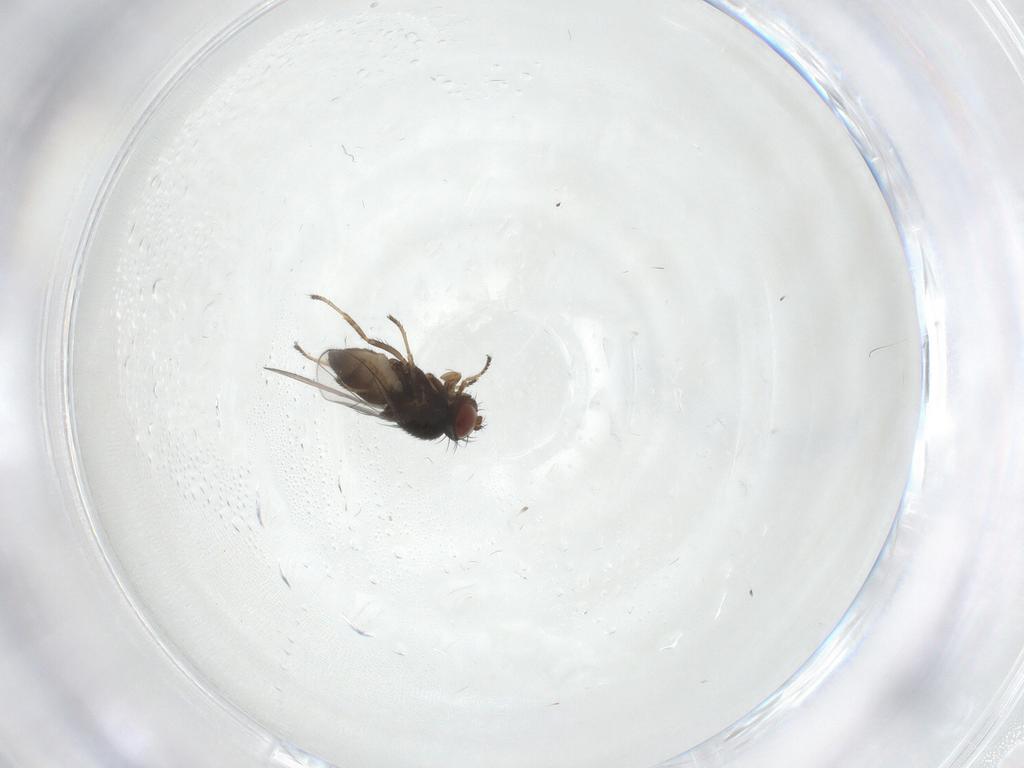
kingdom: Animalia
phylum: Arthropoda
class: Insecta
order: Diptera
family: Clusiidae
